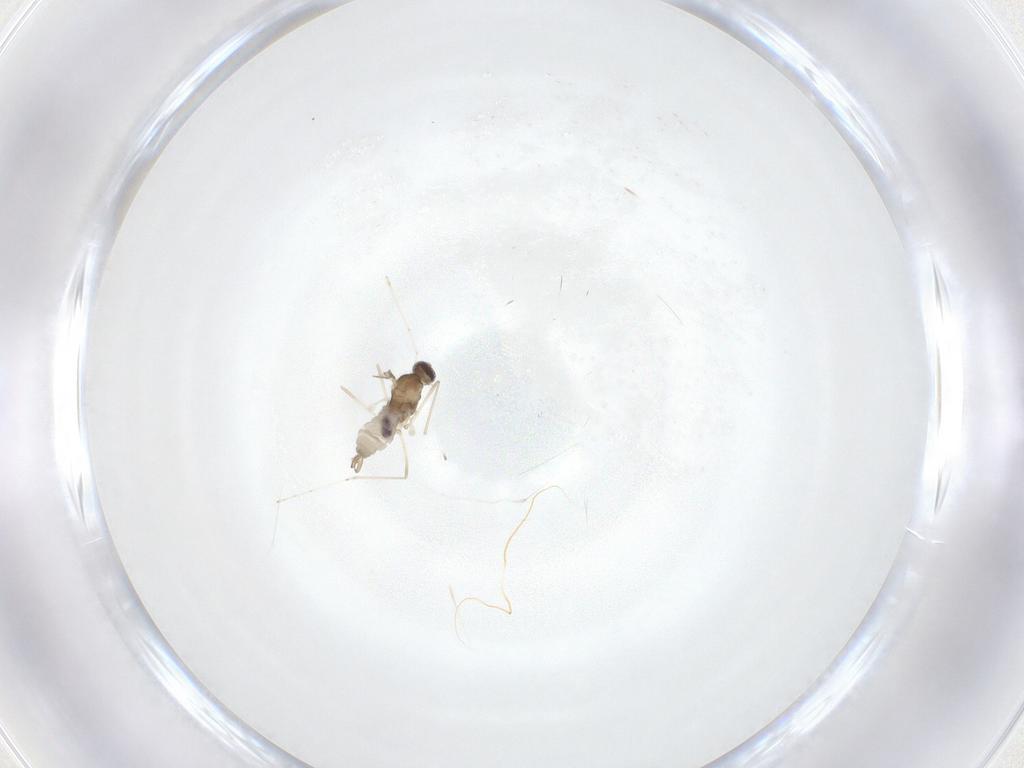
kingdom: Animalia
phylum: Arthropoda
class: Insecta
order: Diptera
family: Cecidomyiidae
